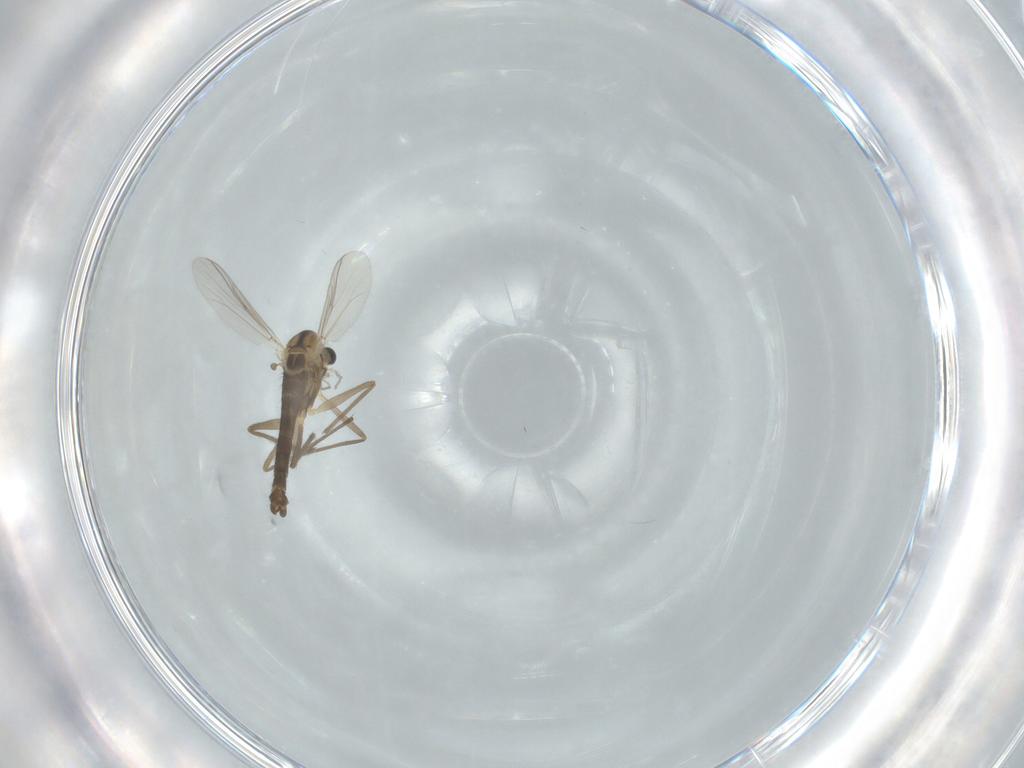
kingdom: Animalia
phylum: Arthropoda
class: Insecta
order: Diptera
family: Chironomidae
